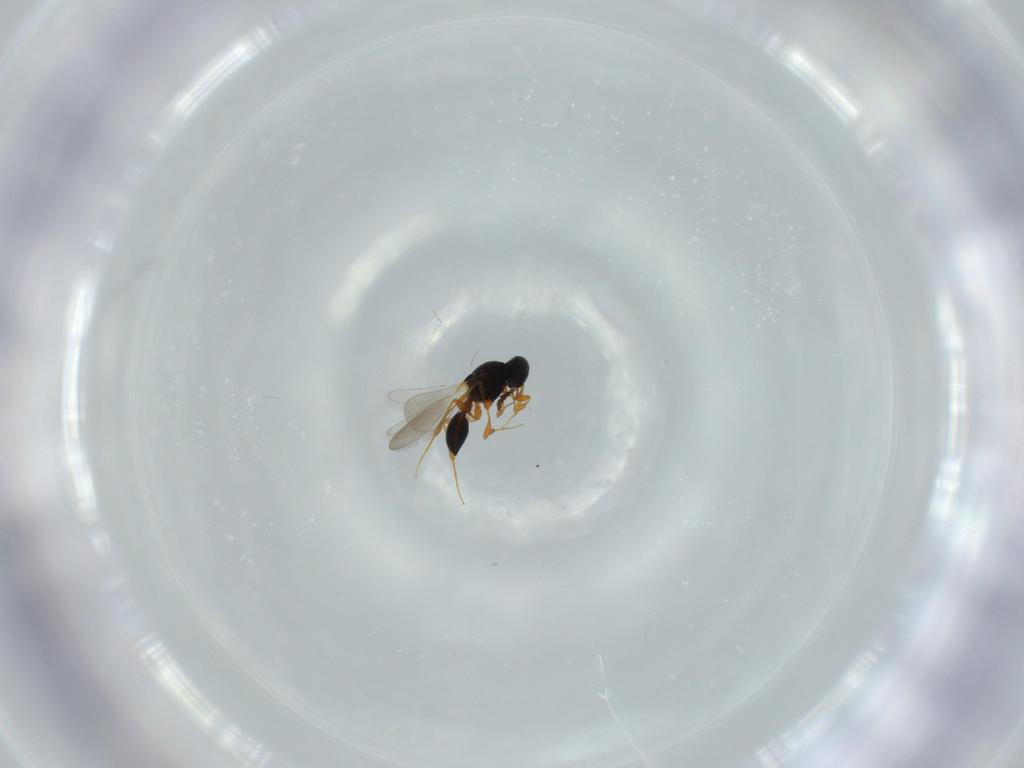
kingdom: Animalia
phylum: Arthropoda
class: Insecta
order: Hymenoptera
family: Platygastridae
